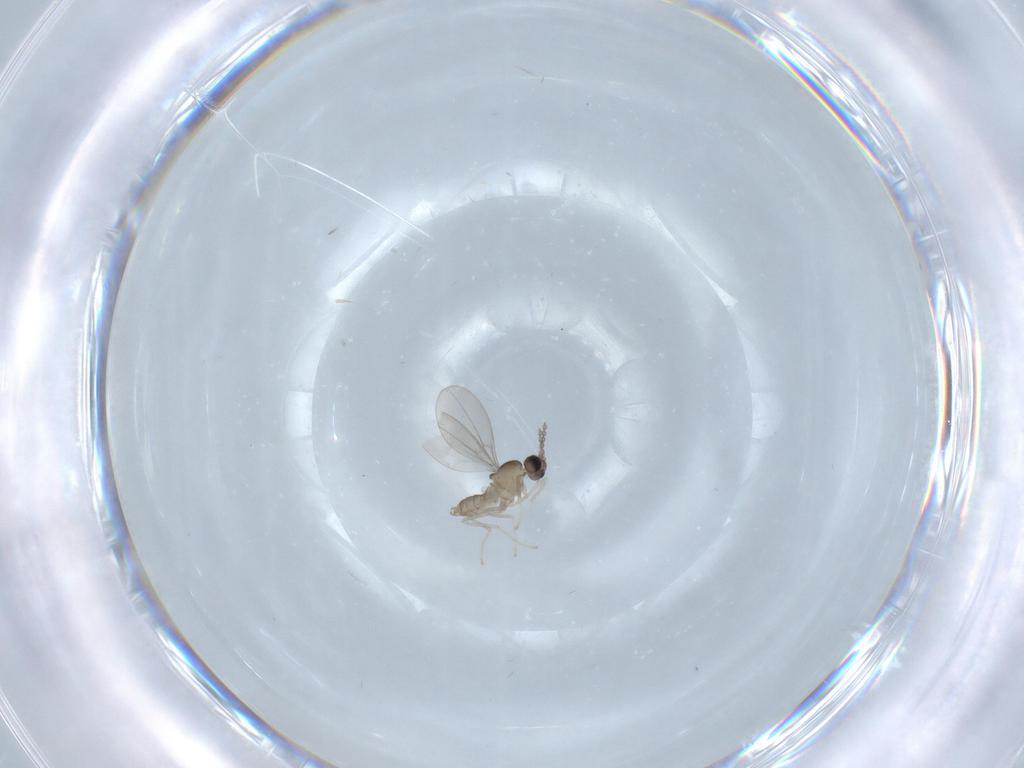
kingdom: Animalia
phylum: Arthropoda
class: Insecta
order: Diptera
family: Cecidomyiidae
